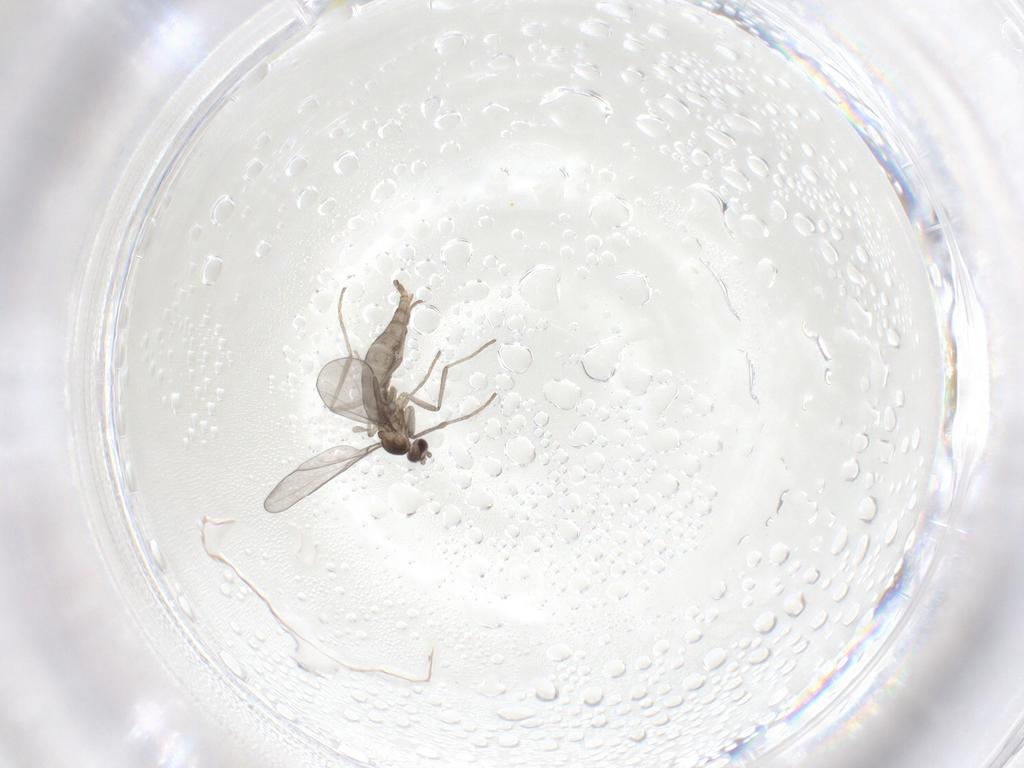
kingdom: Animalia
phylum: Arthropoda
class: Insecta
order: Diptera
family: Cecidomyiidae
